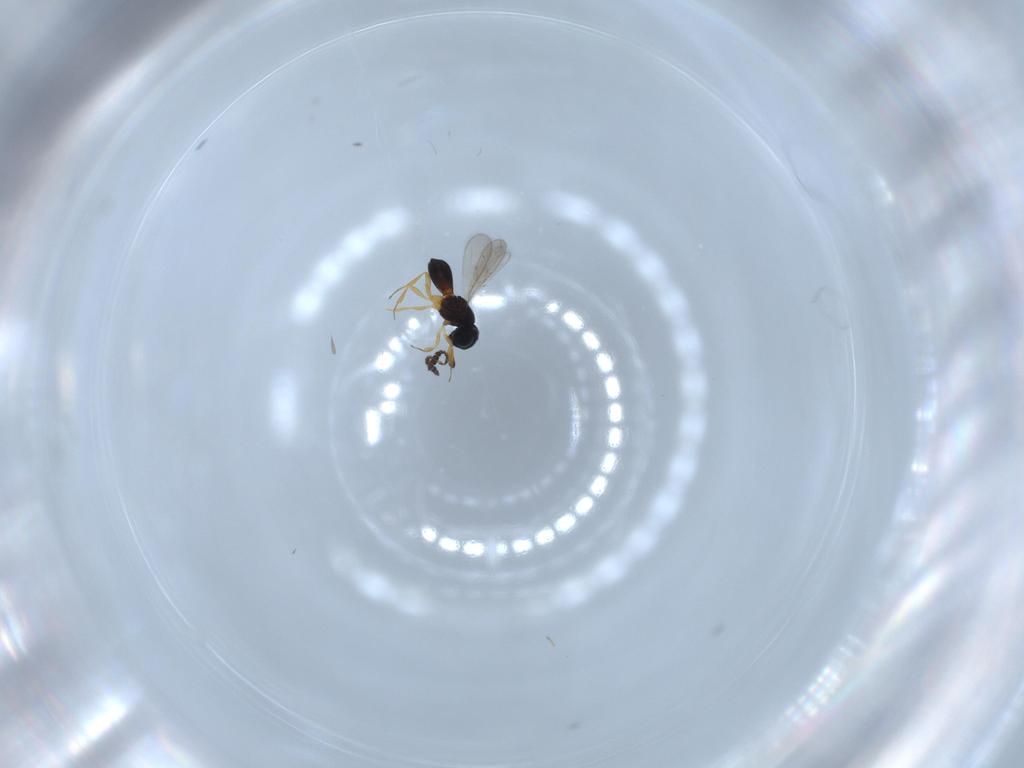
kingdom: Animalia
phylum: Arthropoda
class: Insecta
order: Hymenoptera
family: Scelionidae
